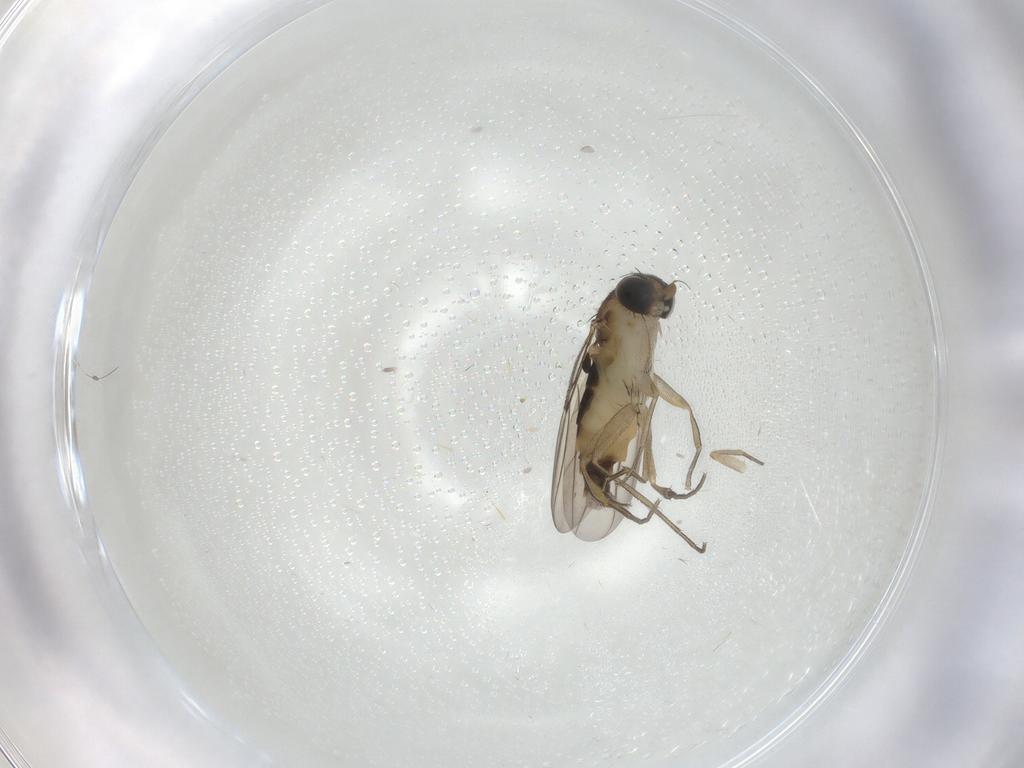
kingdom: Animalia
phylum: Arthropoda
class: Insecta
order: Diptera
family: Phoridae
